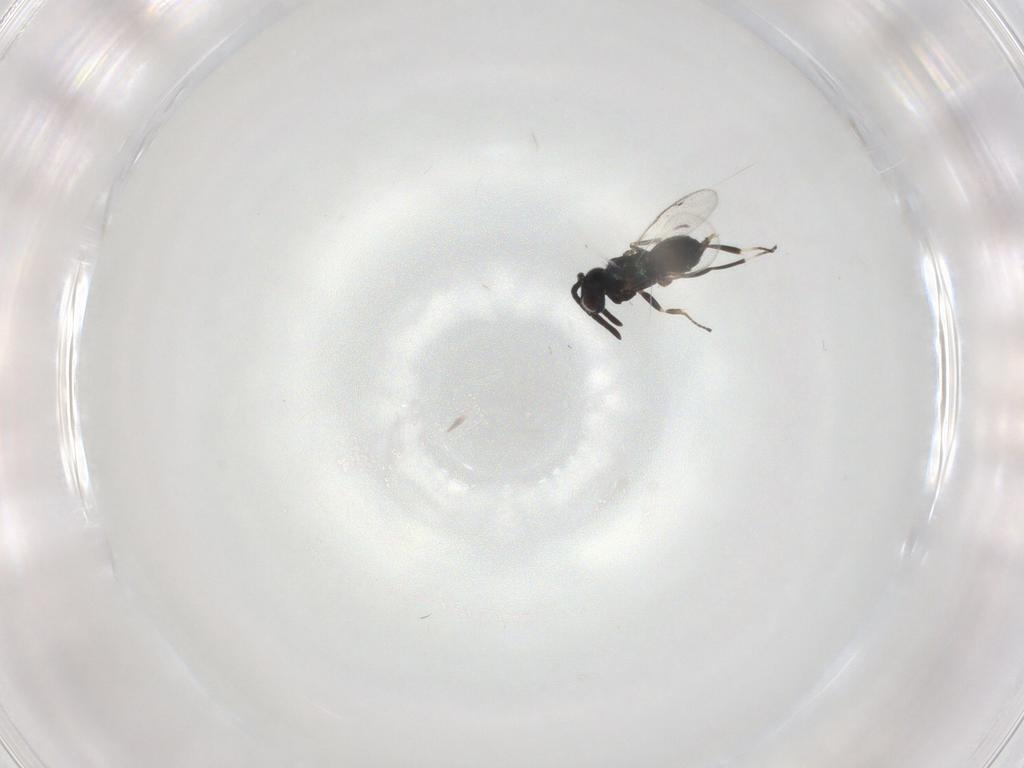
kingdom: Animalia
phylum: Arthropoda
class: Insecta
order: Hymenoptera
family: Eupelmidae
